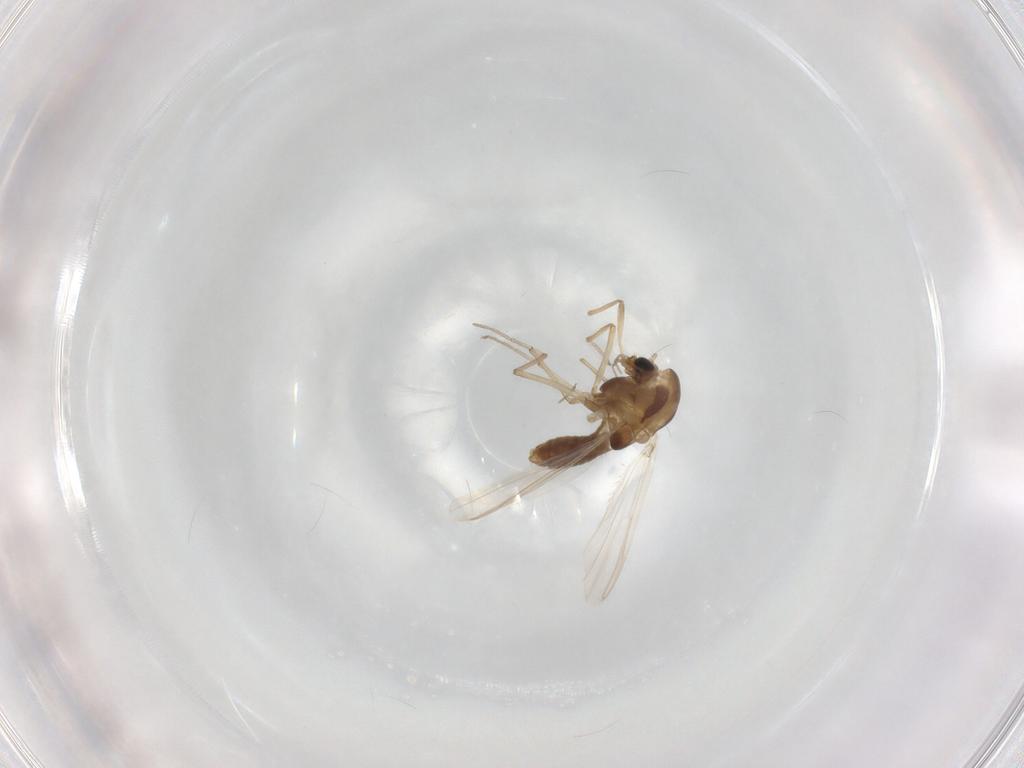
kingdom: Animalia
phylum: Arthropoda
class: Insecta
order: Diptera
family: Chironomidae
